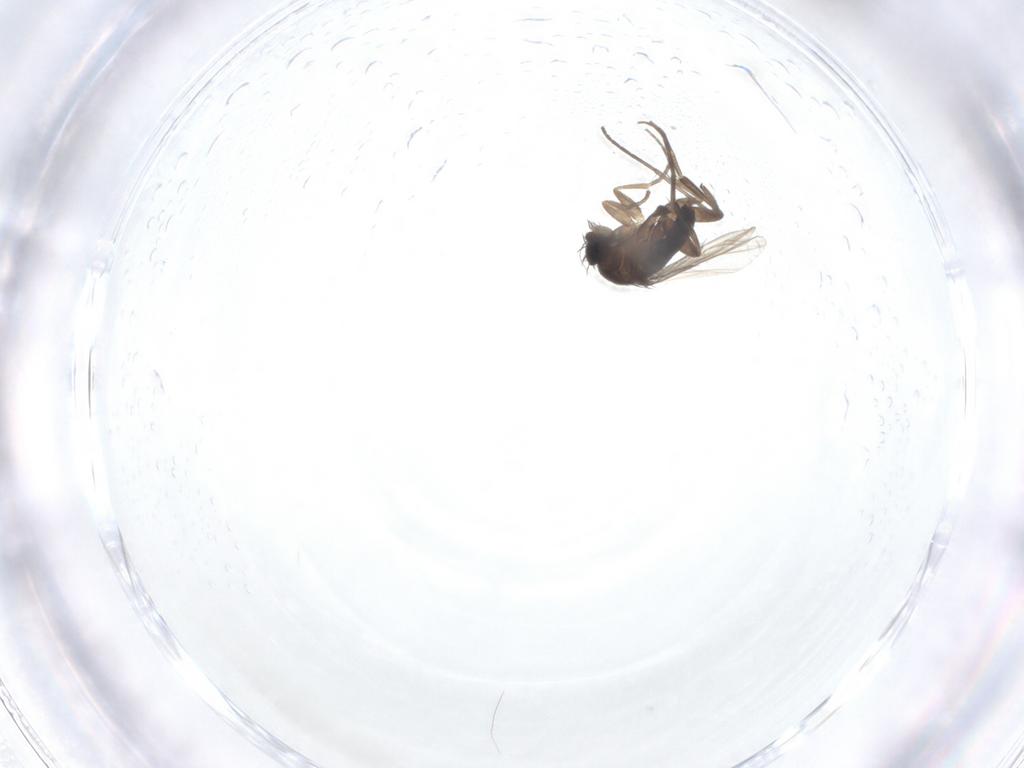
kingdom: Animalia
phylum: Arthropoda
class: Insecta
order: Diptera
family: Phoridae
